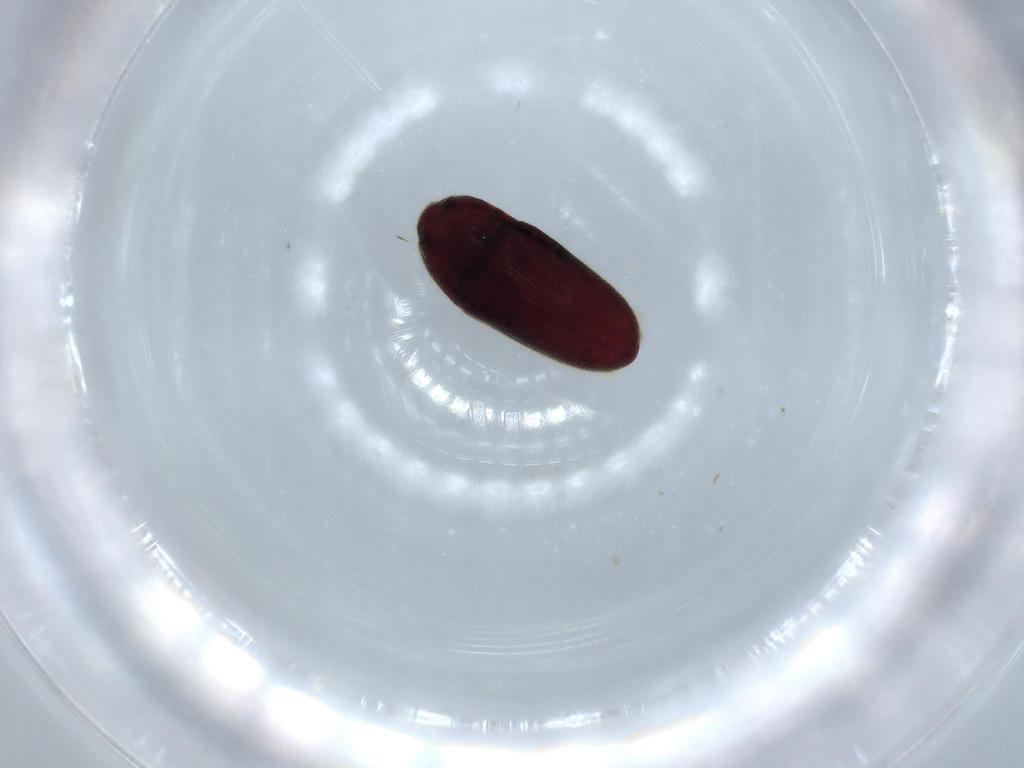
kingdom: Animalia
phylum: Arthropoda
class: Insecta
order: Coleoptera
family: Throscidae
